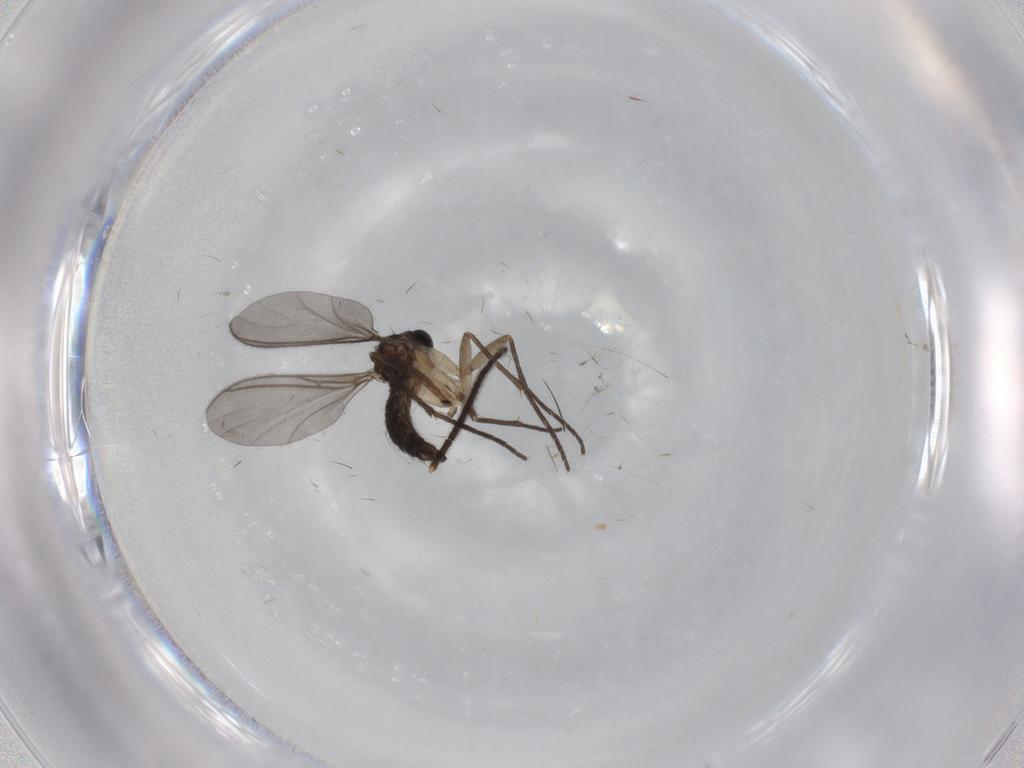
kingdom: Animalia
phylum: Arthropoda
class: Insecta
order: Diptera
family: Sciaridae
